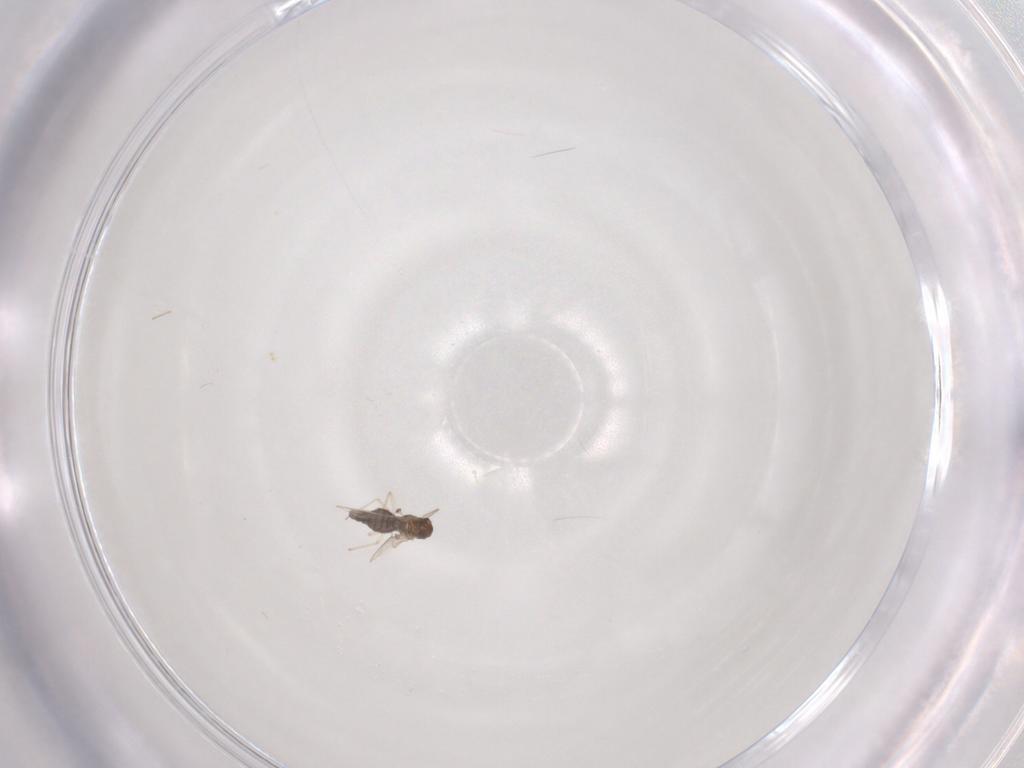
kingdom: Animalia
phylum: Arthropoda
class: Insecta
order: Diptera
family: Chironomidae
